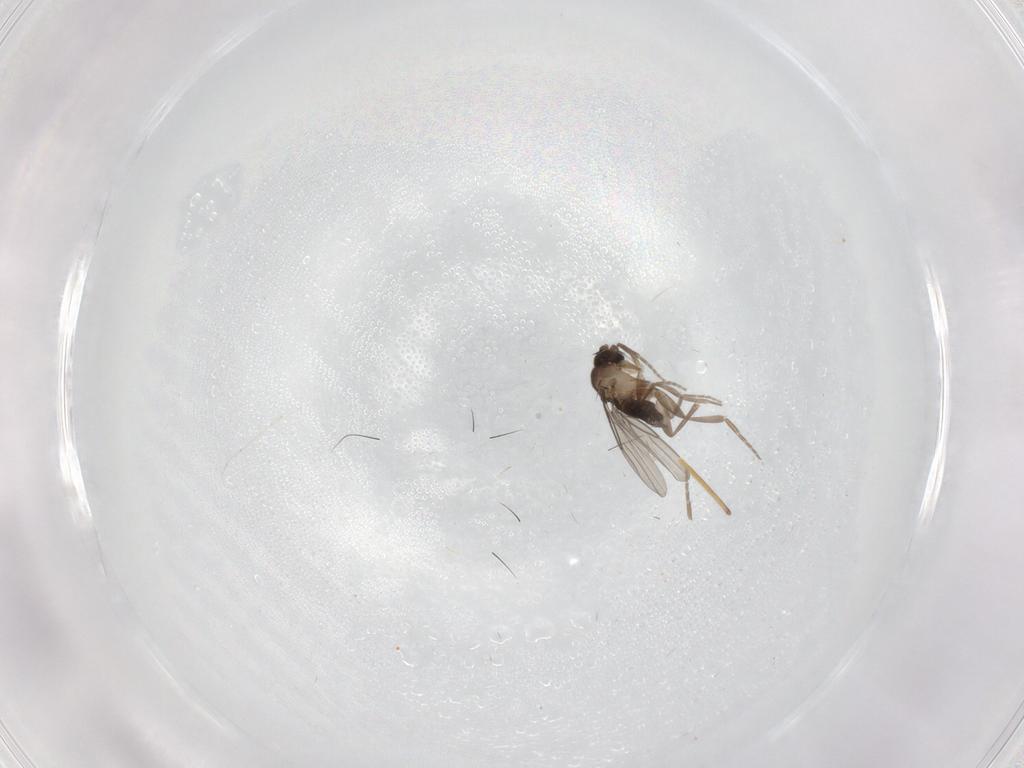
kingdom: Animalia
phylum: Arthropoda
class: Insecta
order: Diptera
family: Phoridae
